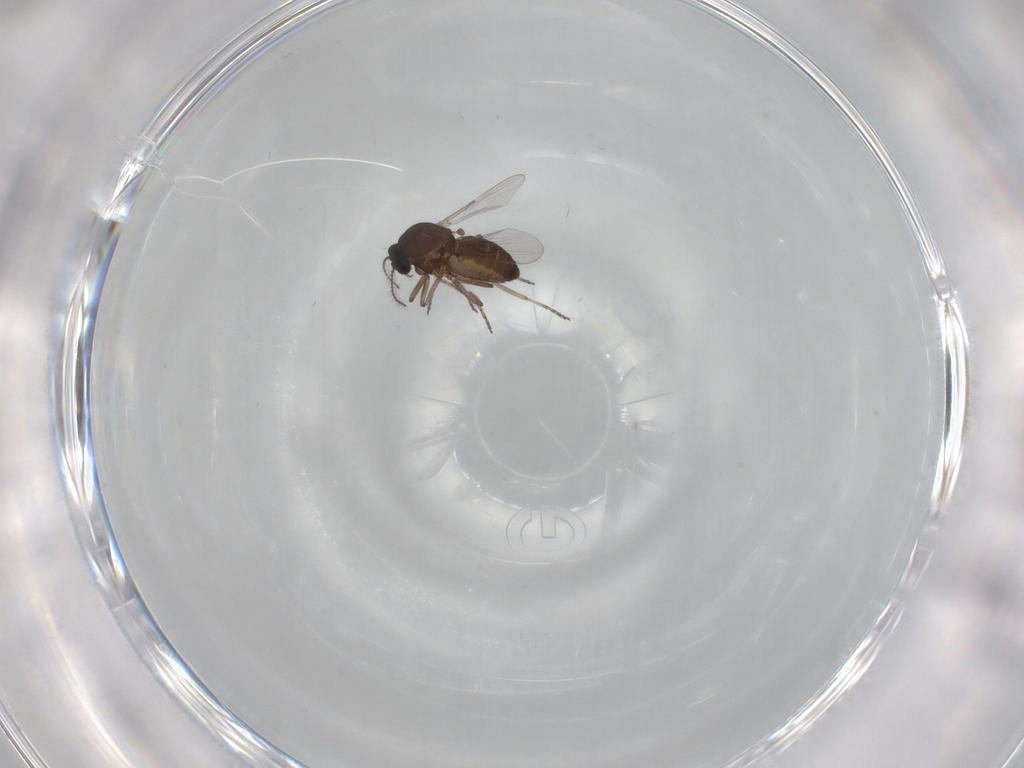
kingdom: Animalia
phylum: Arthropoda
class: Insecta
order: Diptera
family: Ceratopogonidae
